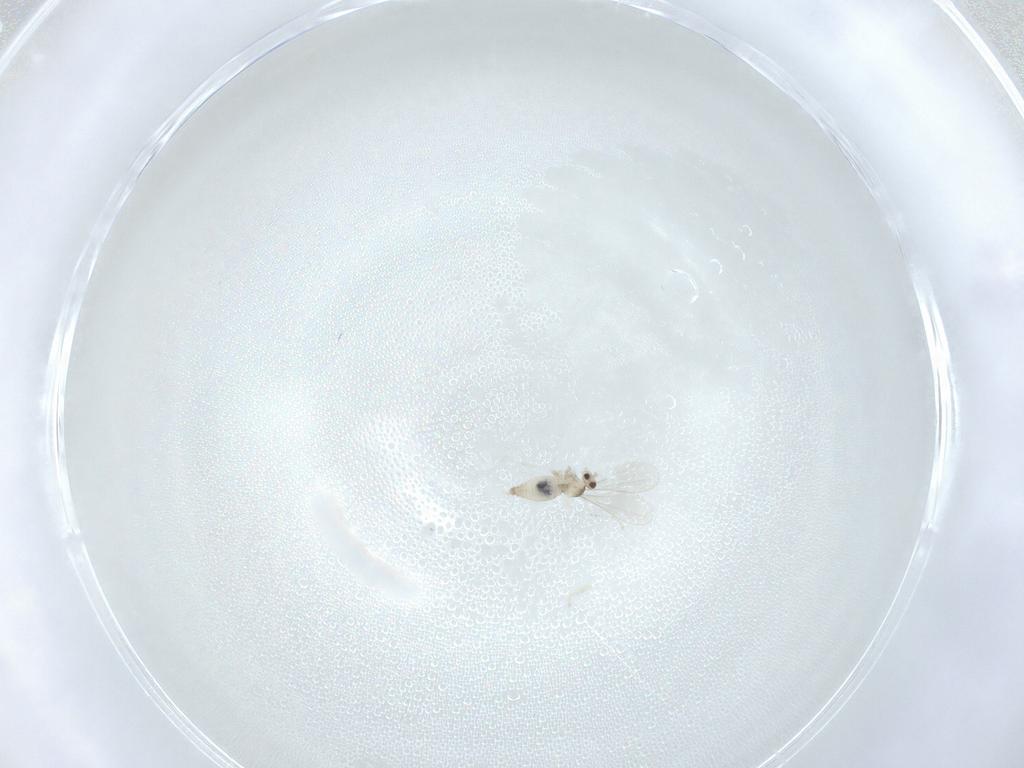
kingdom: Animalia
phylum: Arthropoda
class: Insecta
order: Diptera
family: Cecidomyiidae
